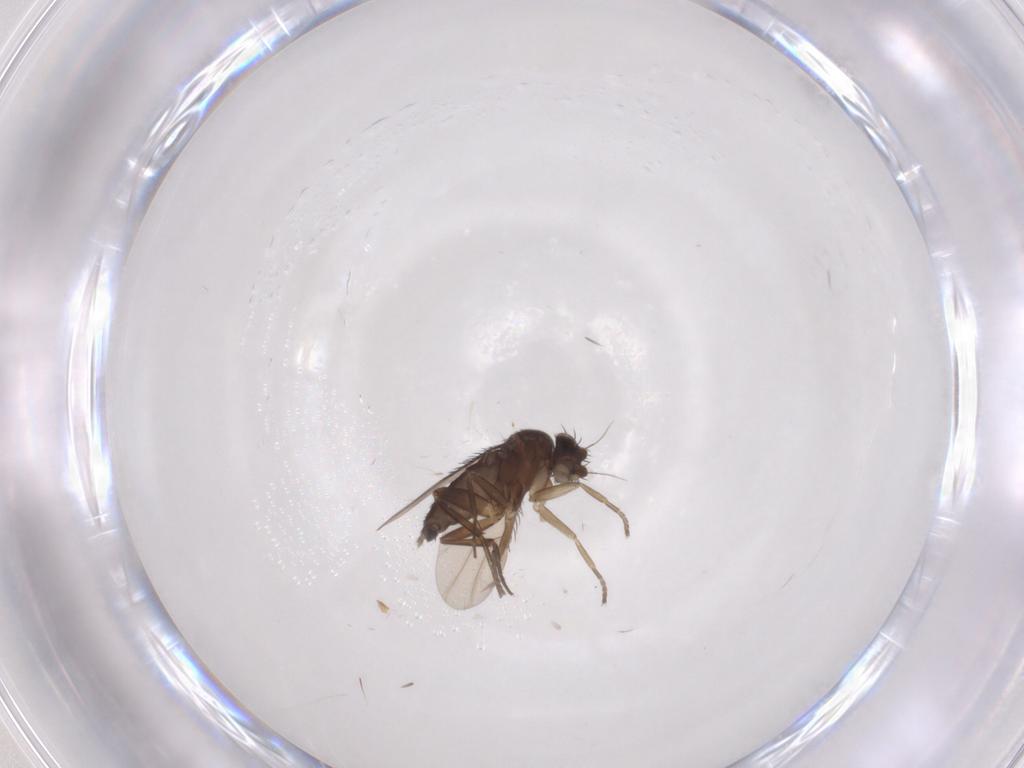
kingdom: Animalia
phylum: Arthropoda
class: Insecta
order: Diptera
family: Phoridae
